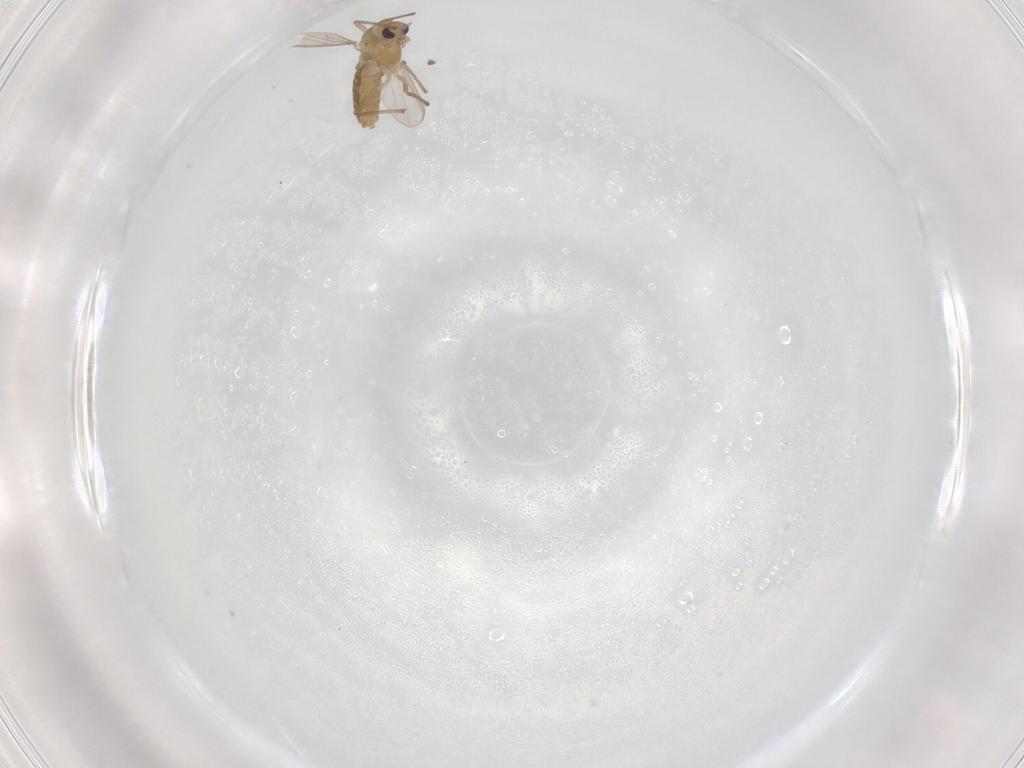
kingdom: Animalia
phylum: Arthropoda
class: Insecta
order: Diptera
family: Chironomidae
